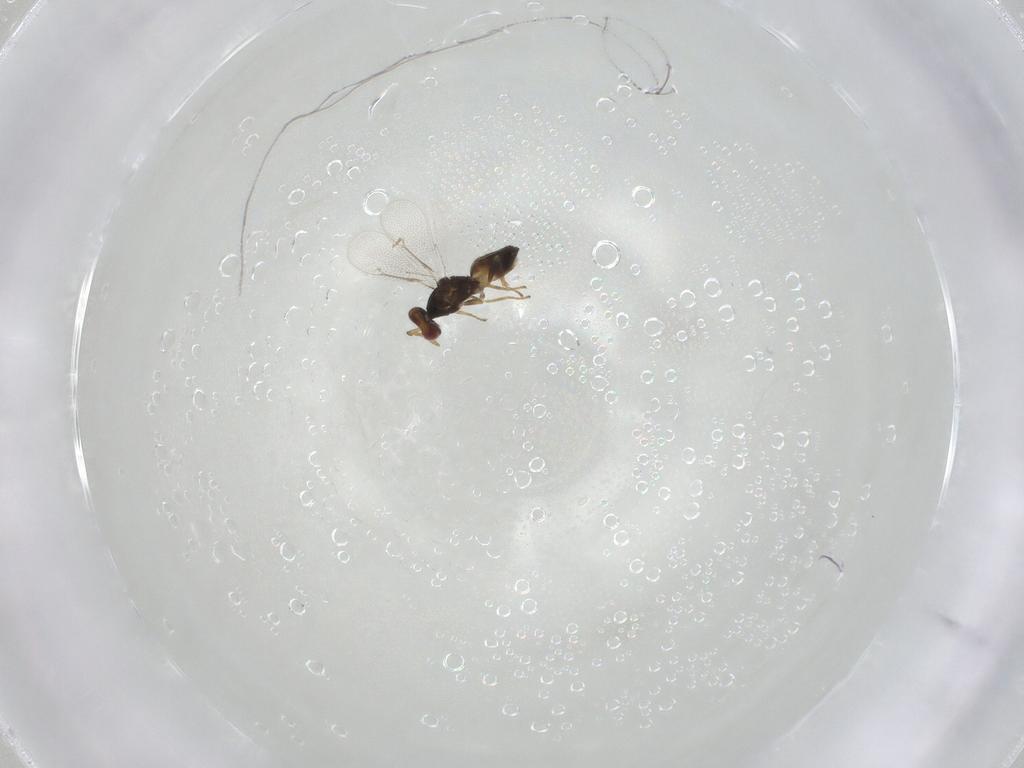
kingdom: Animalia
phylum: Arthropoda
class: Insecta
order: Hymenoptera
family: Eulophidae
